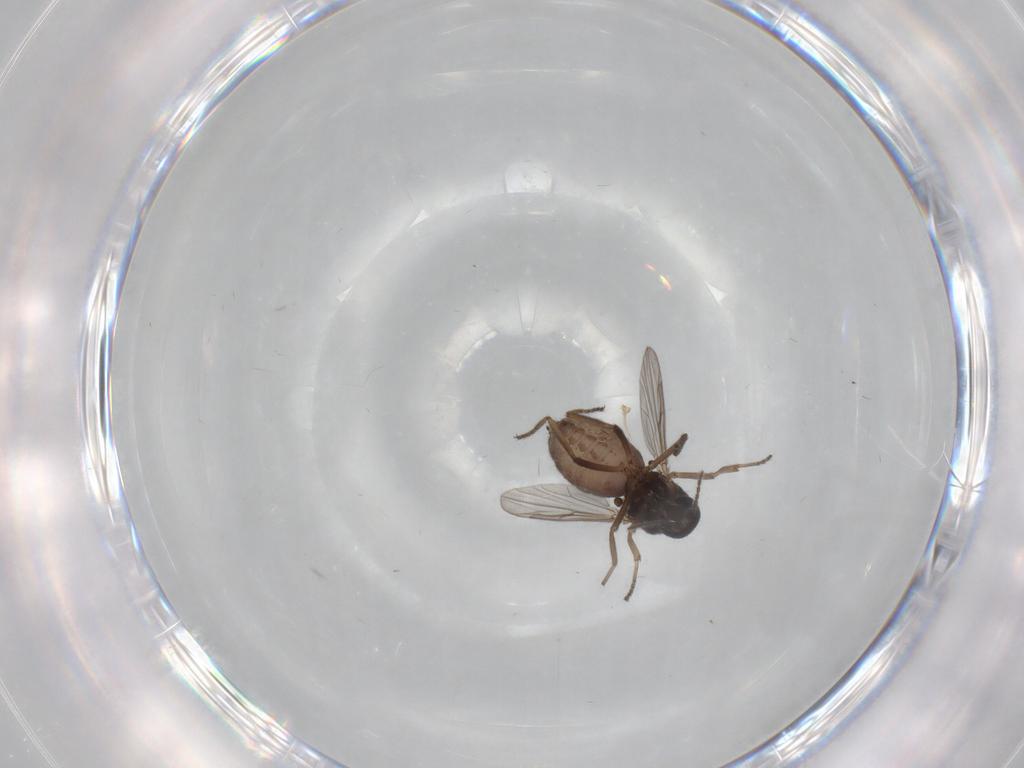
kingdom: Animalia
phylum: Arthropoda
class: Insecta
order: Diptera
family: Ceratopogonidae
